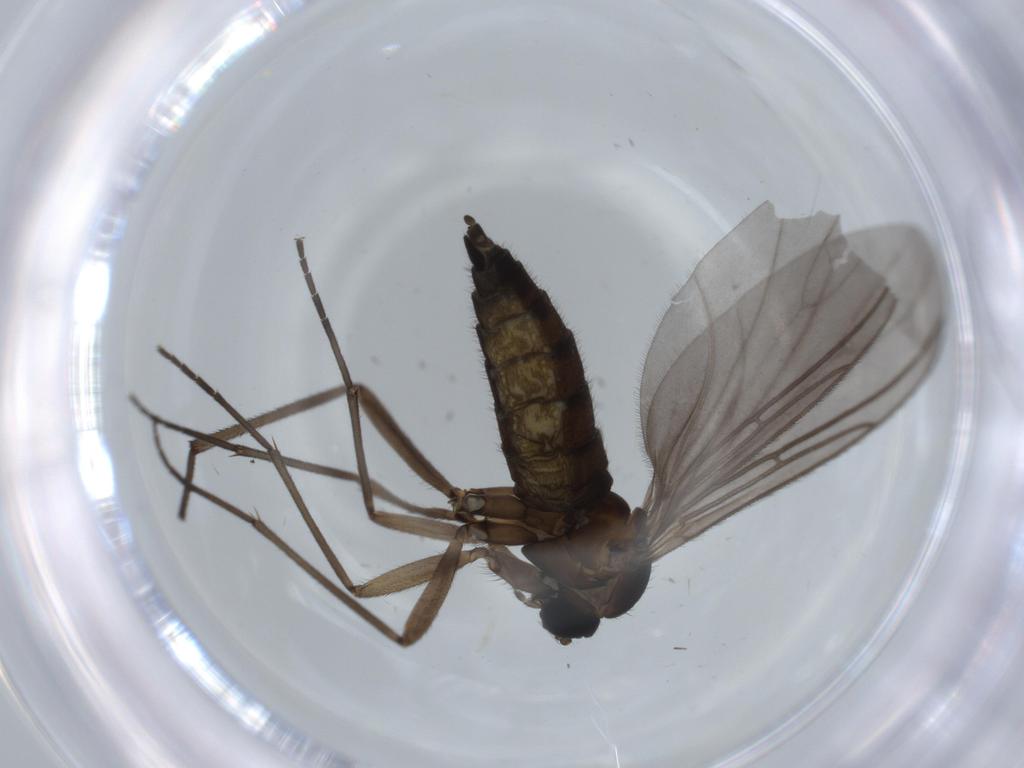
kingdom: Animalia
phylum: Arthropoda
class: Insecta
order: Diptera
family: Sciaridae
